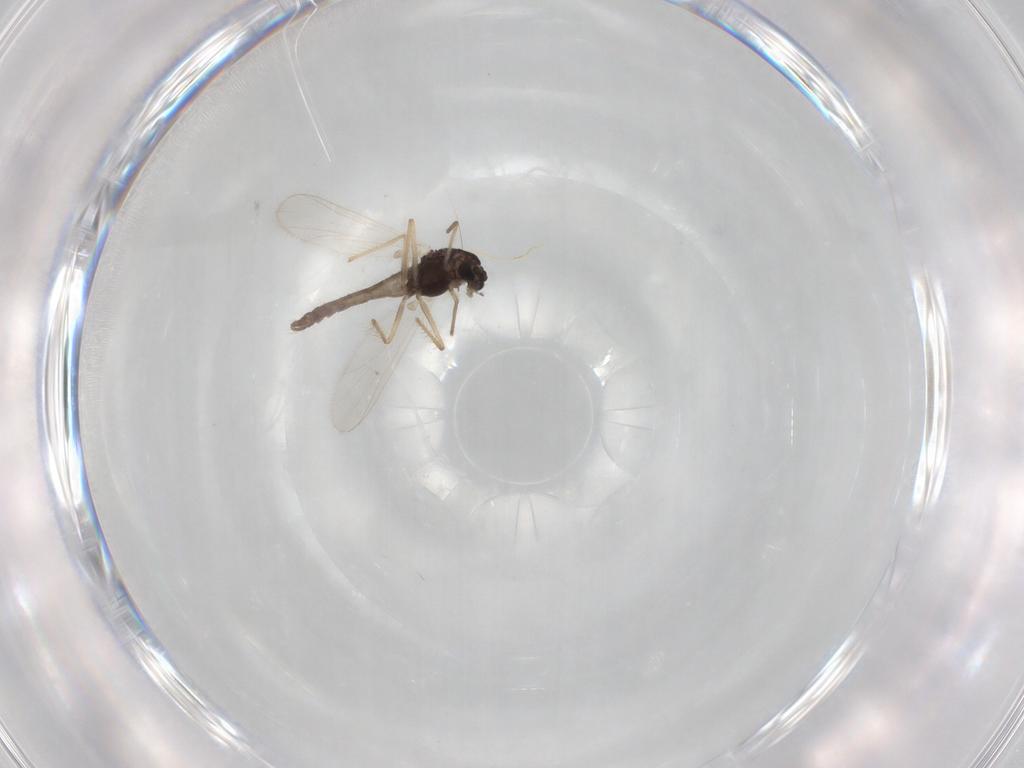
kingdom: Animalia
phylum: Arthropoda
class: Insecta
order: Diptera
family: Chironomidae
